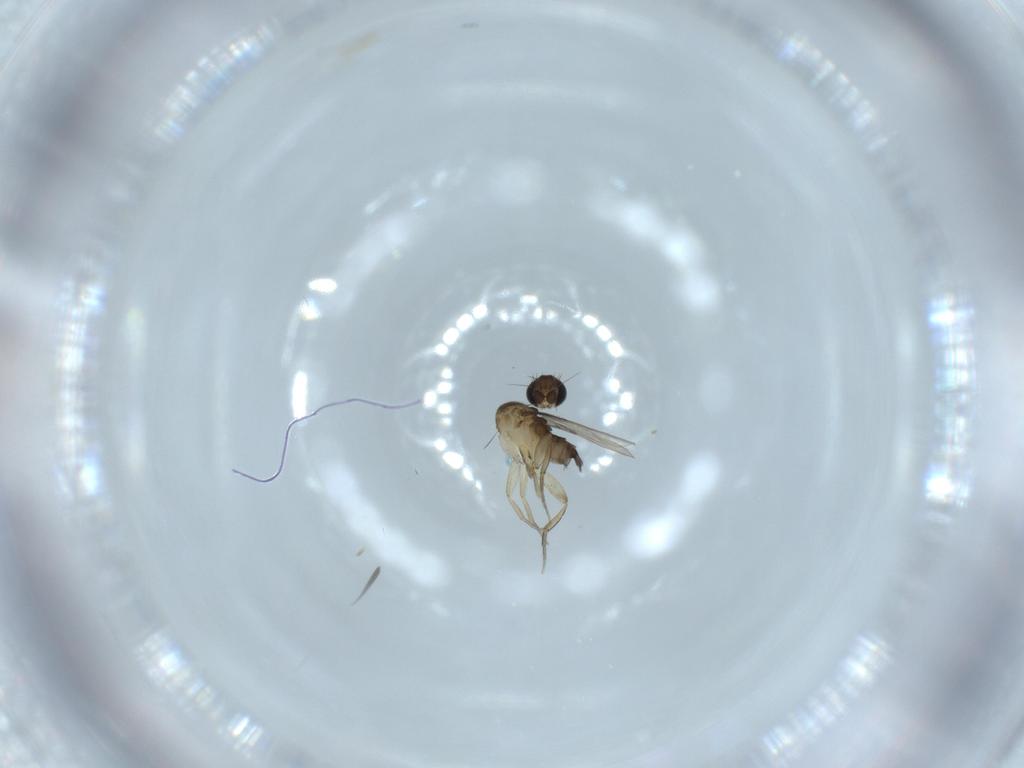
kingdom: Animalia
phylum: Arthropoda
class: Insecta
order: Diptera
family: Phoridae
